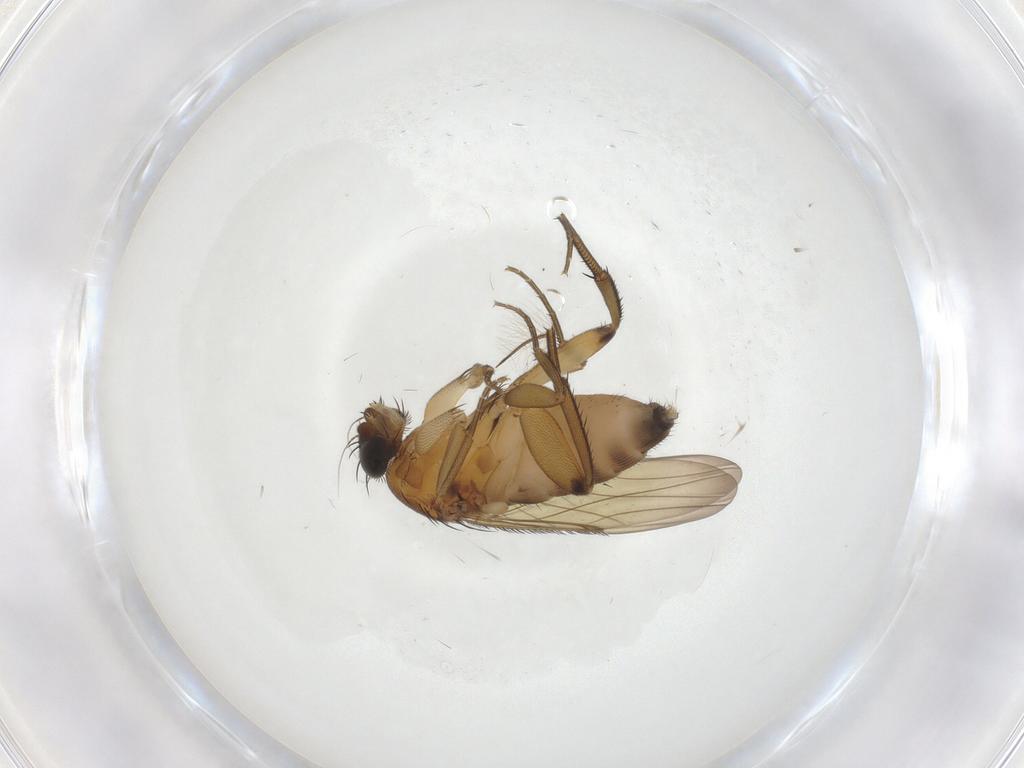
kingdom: Animalia
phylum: Arthropoda
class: Insecta
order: Diptera
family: Phoridae
